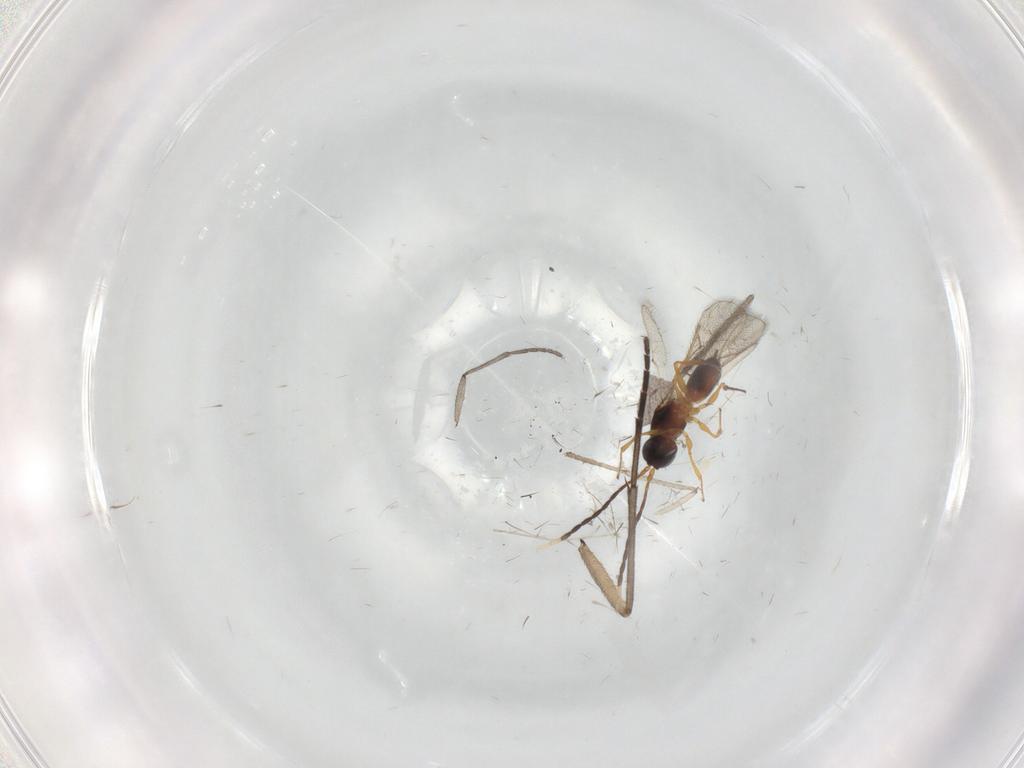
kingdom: Animalia
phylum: Arthropoda
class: Insecta
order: Hymenoptera
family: Figitidae
